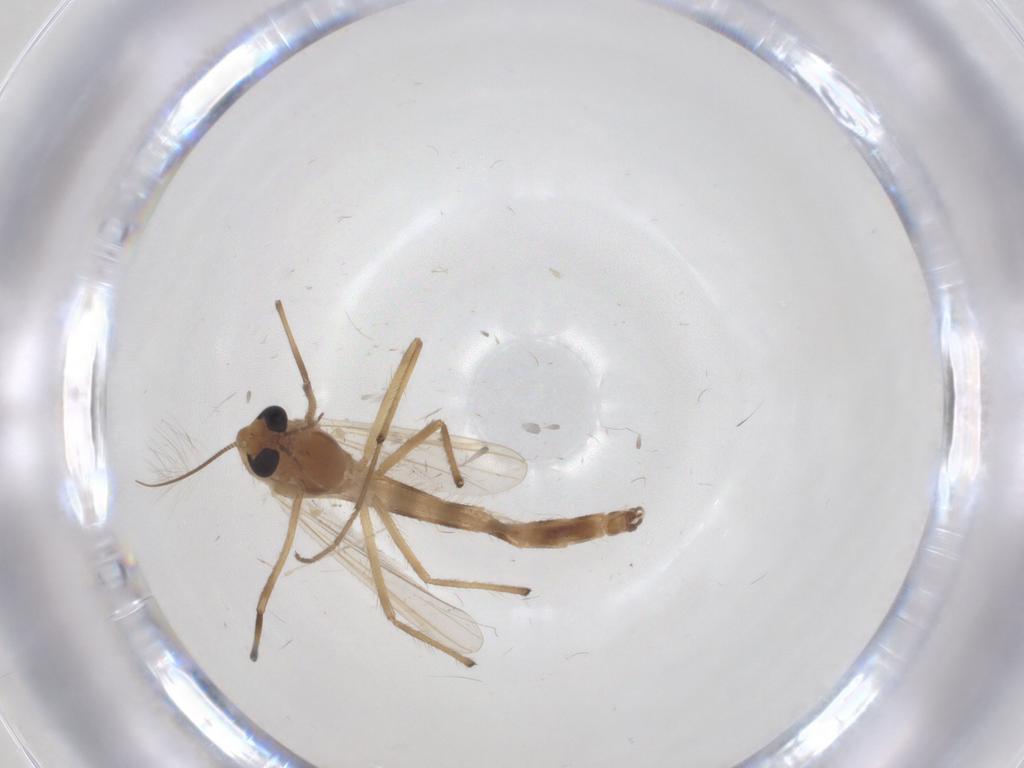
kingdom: Animalia
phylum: Arthropoda
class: Insecta
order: Diptera
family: Chironomidae
